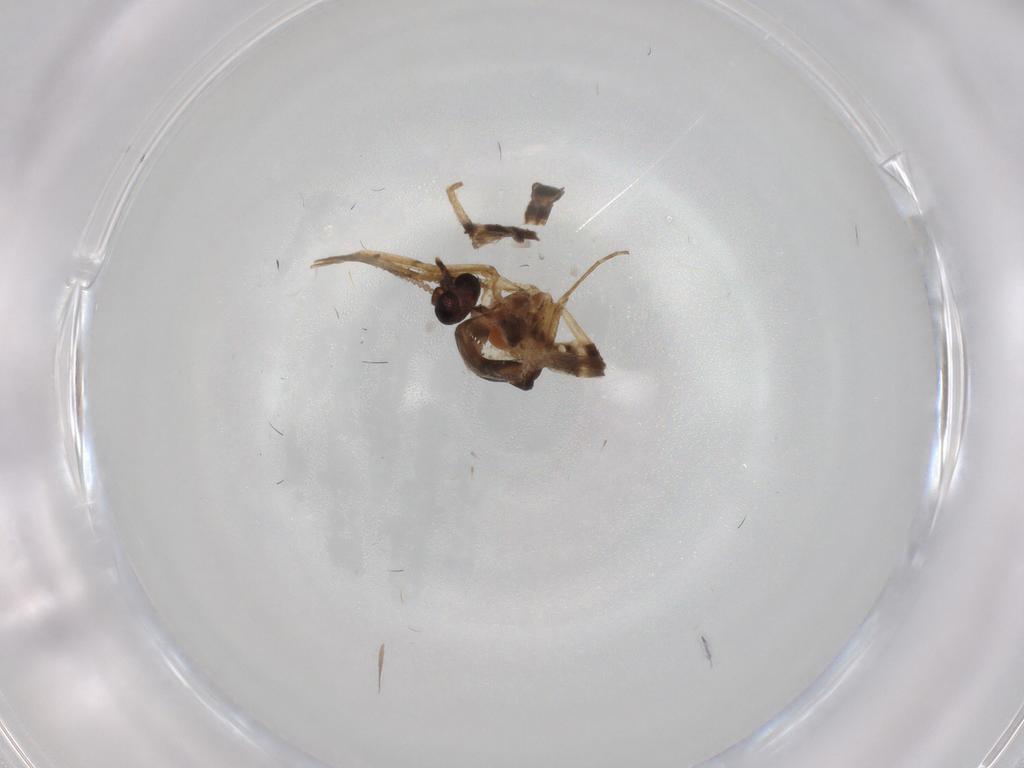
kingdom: Animalia
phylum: Arthropoda
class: Insecta
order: Diptera
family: Ceratopogonidae
